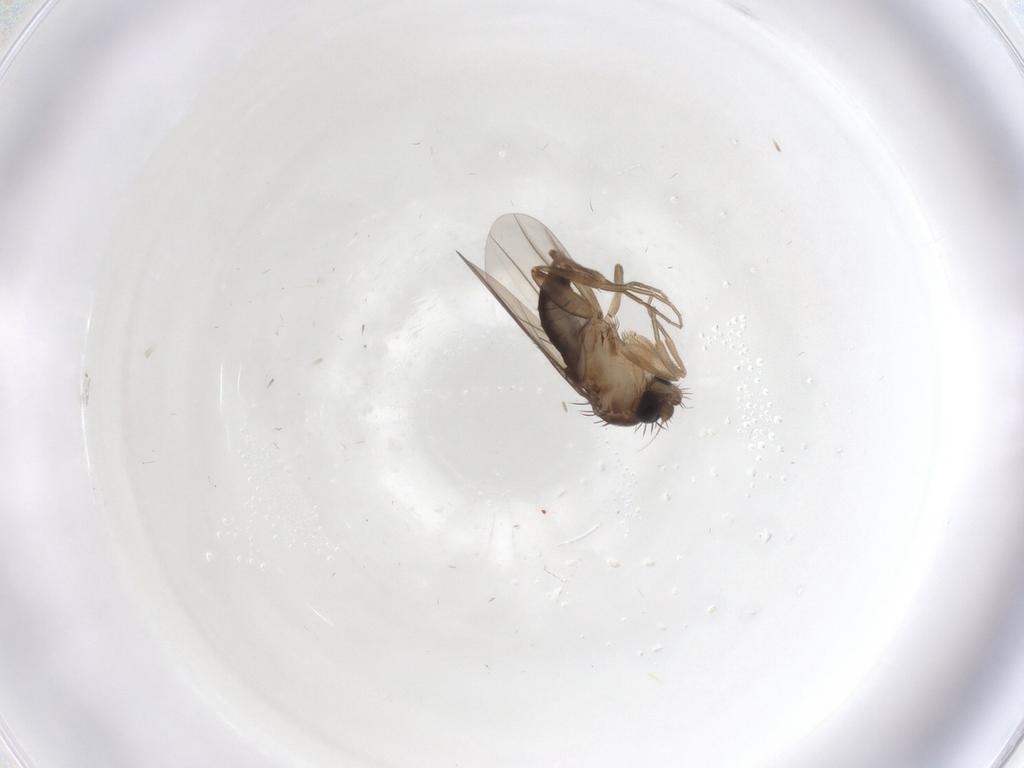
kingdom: Animalia
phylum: Arthropoda
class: Insecta
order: Diptera
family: Phoridae
